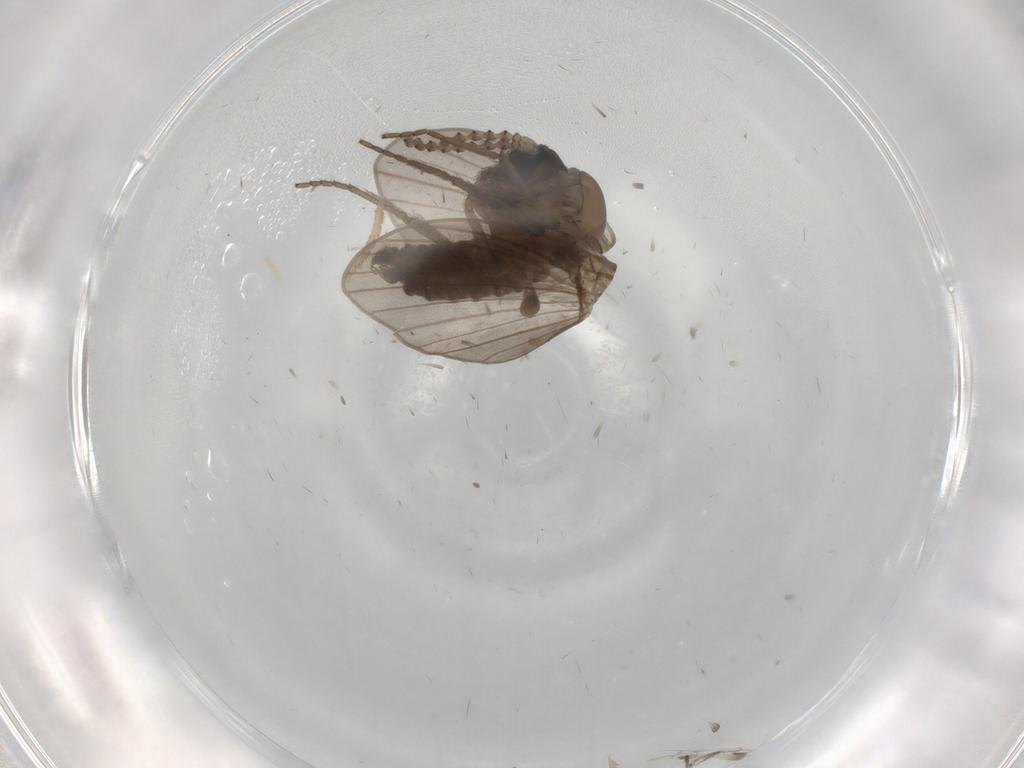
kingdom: Animalia
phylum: Arthropoda
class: Insecta
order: Diptera
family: Psychodidae
